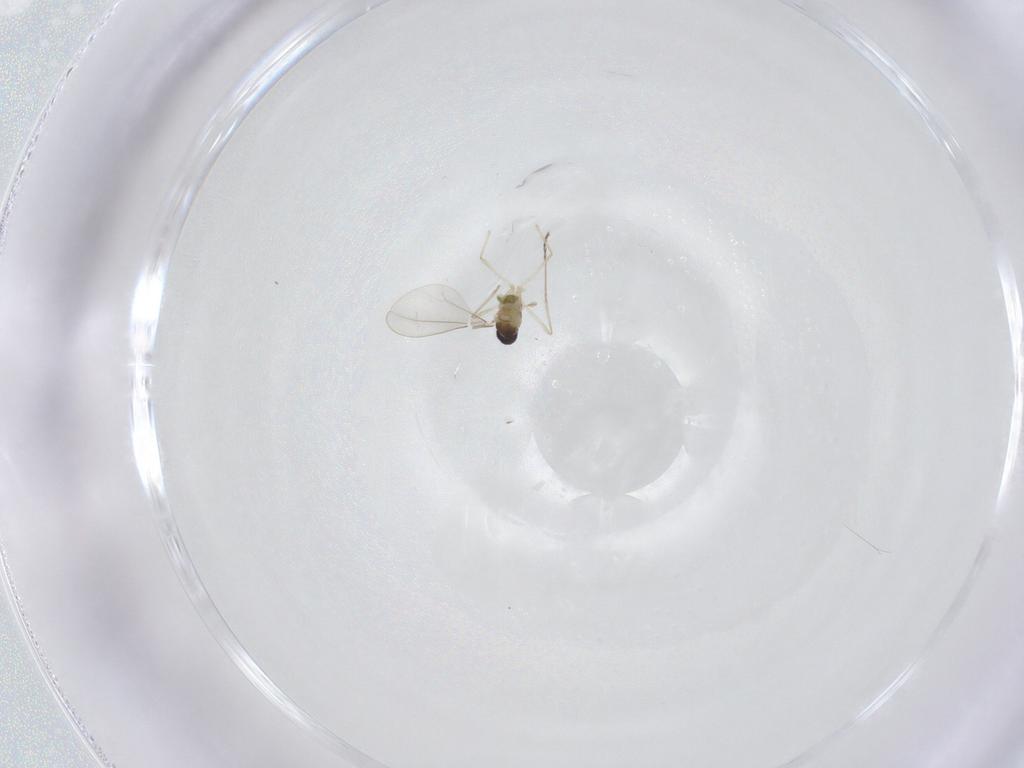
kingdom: Animalia
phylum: Arthropoda
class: Insecta
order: Diptera
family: Cecidomyiidae
